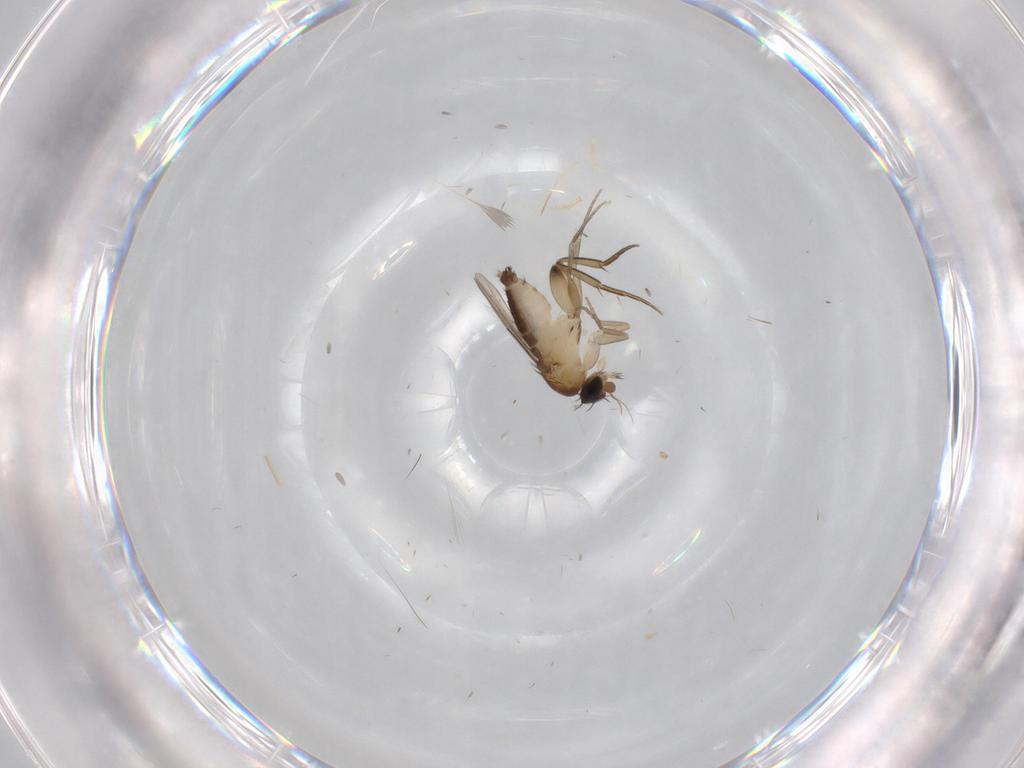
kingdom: Animalia
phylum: Arthropoda
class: Insecta
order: Diptera
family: Phoridae
